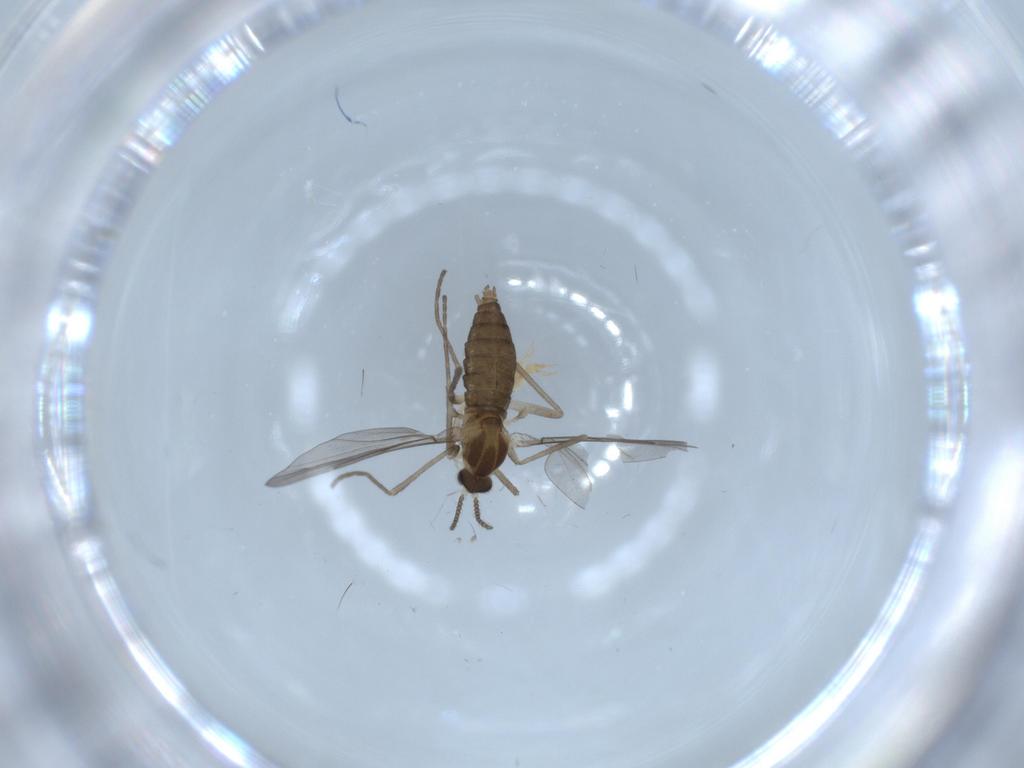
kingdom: Animalia
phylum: Arthropoda
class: Insecta
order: Diptera
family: Cecidomyiidae
